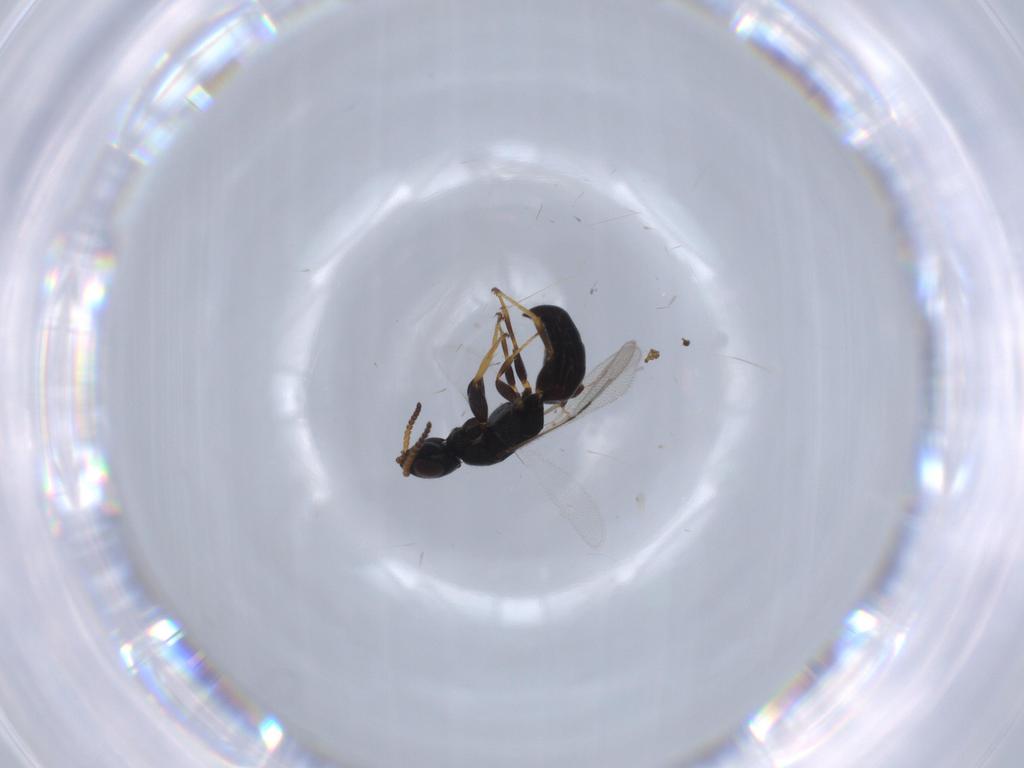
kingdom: Animalia
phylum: Arthropoda
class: Insecta
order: Hymenoptera
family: Bethylidae
